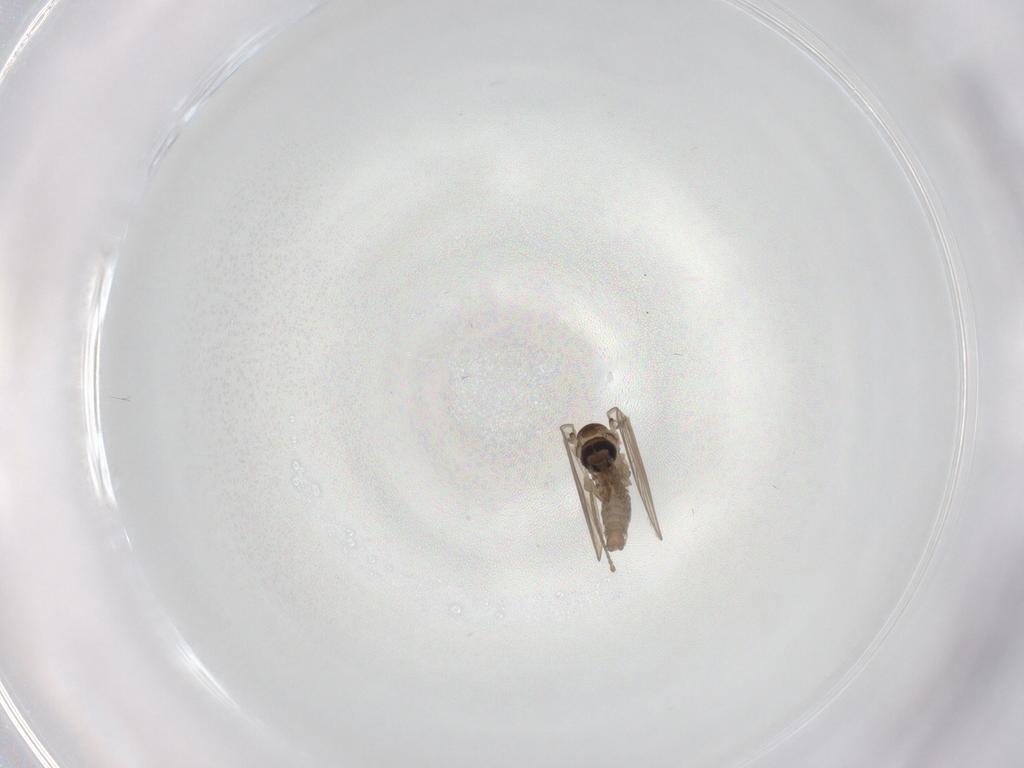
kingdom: Animalia
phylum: Arthropoda
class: Insecta
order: Diptera
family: Psychodidae
